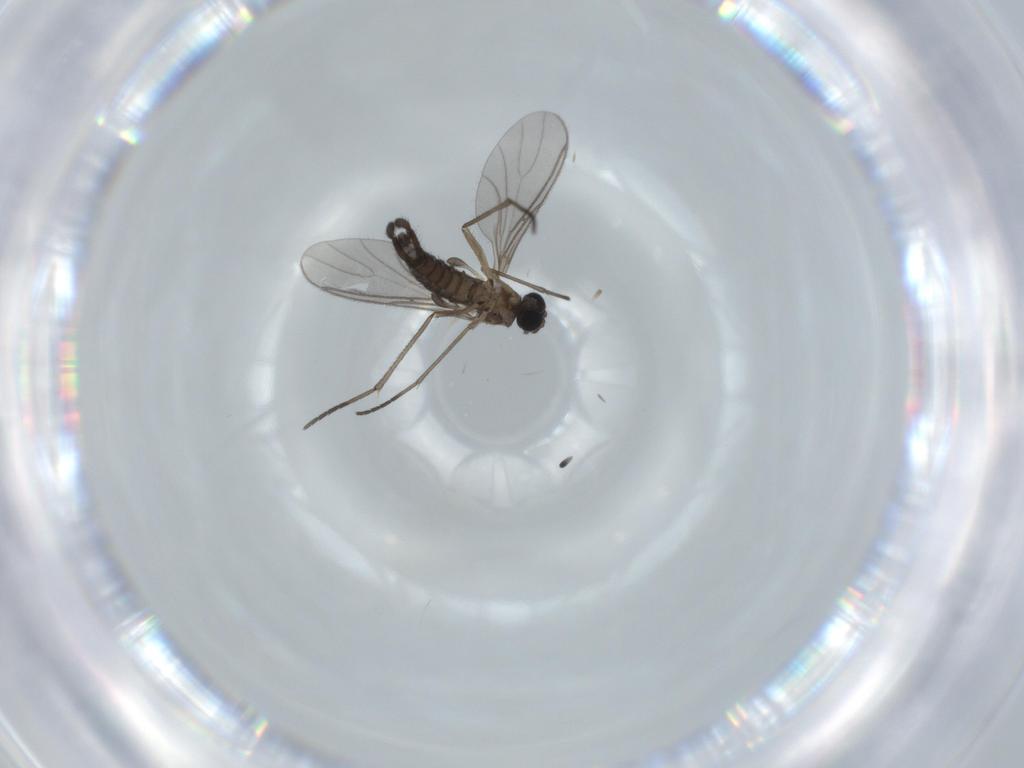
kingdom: Animalia
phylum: Arthropoda
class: Insecta
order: Diptera
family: Sciaridae
